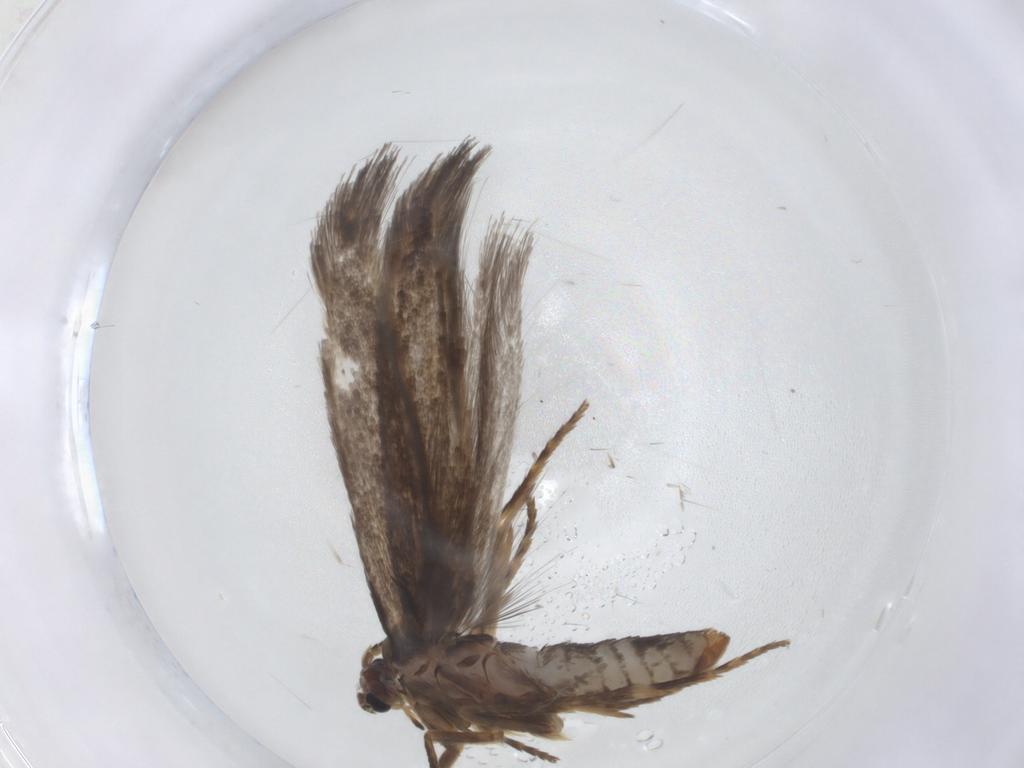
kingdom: Animalia
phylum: Arthropoda
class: Insecta
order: Lepidoptera
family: Nepticulidae
